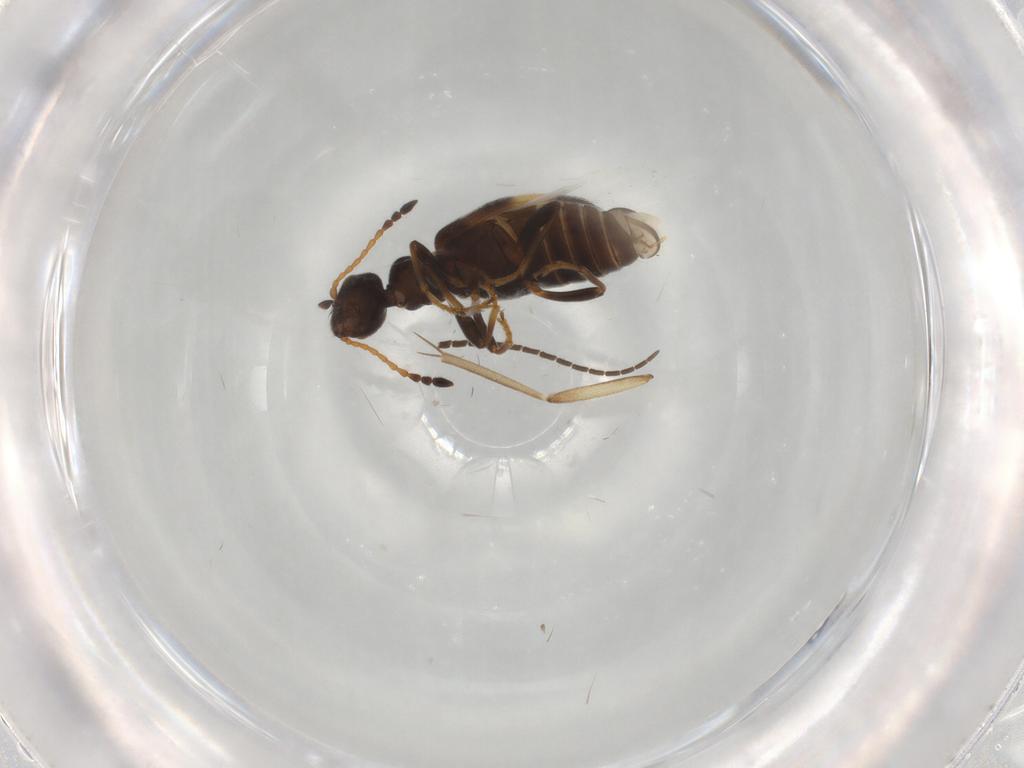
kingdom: Animalia
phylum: Arthropoda
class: Insecta
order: Coleoptera
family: Anthicidae
